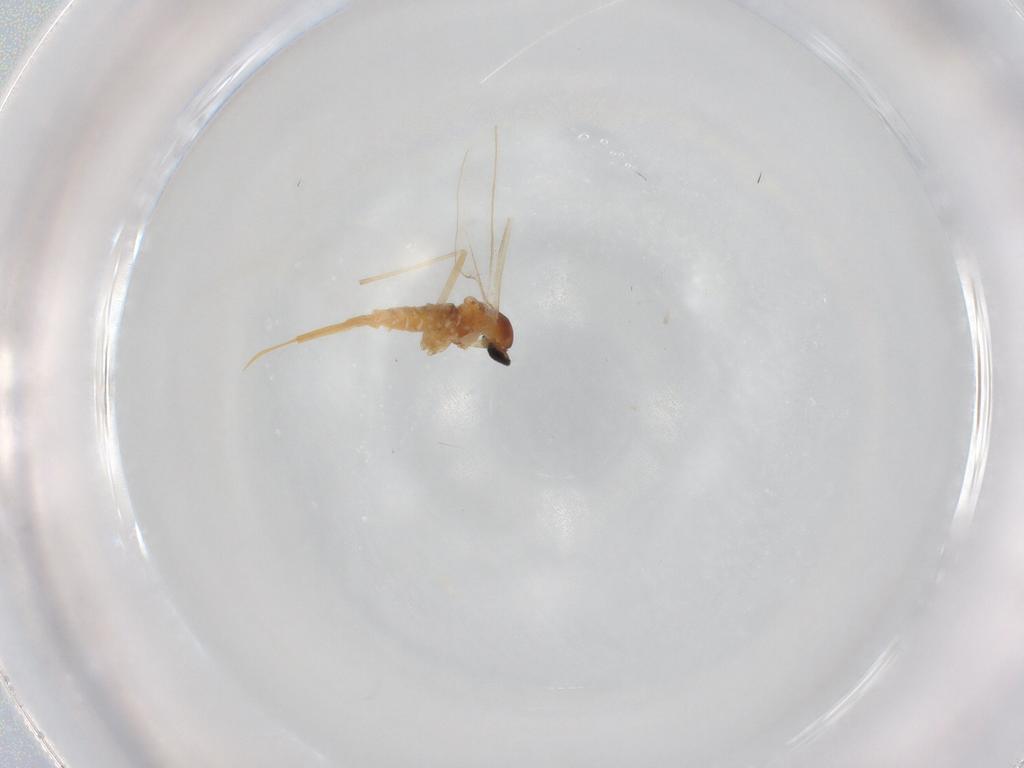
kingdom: Animalia
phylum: Arthropoda
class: Insecta
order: Diptera
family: Cecidomyiidae
